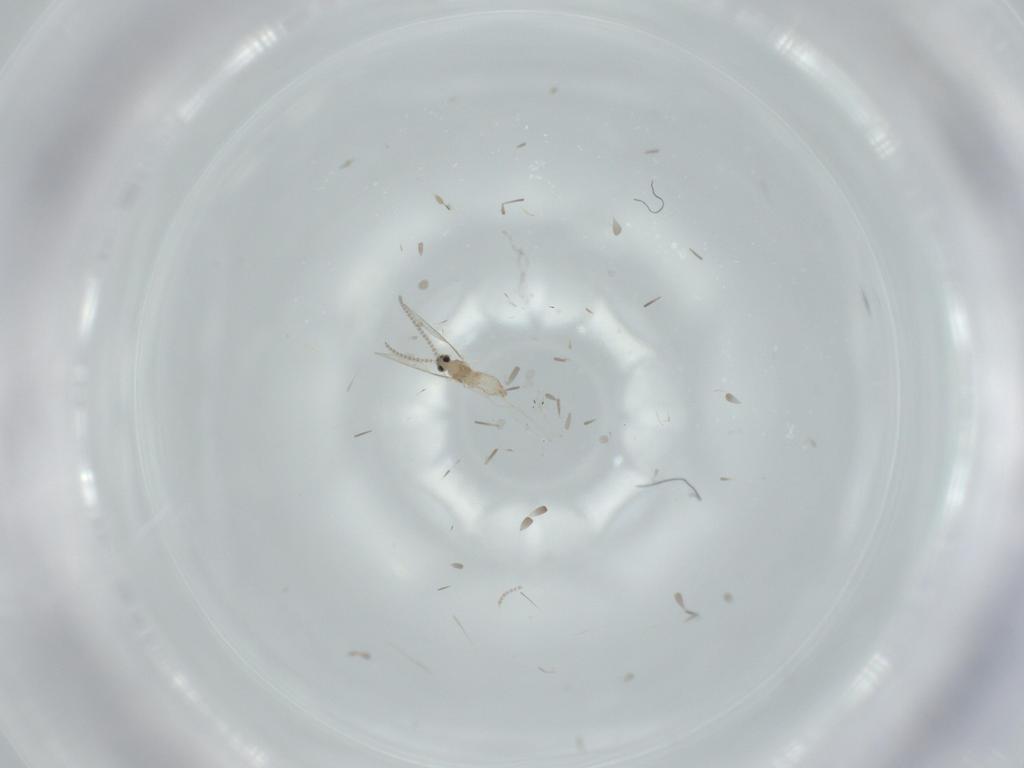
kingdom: Animalia
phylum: Arthropoda
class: Insecta
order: Diptera
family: Cecidomyiidae
